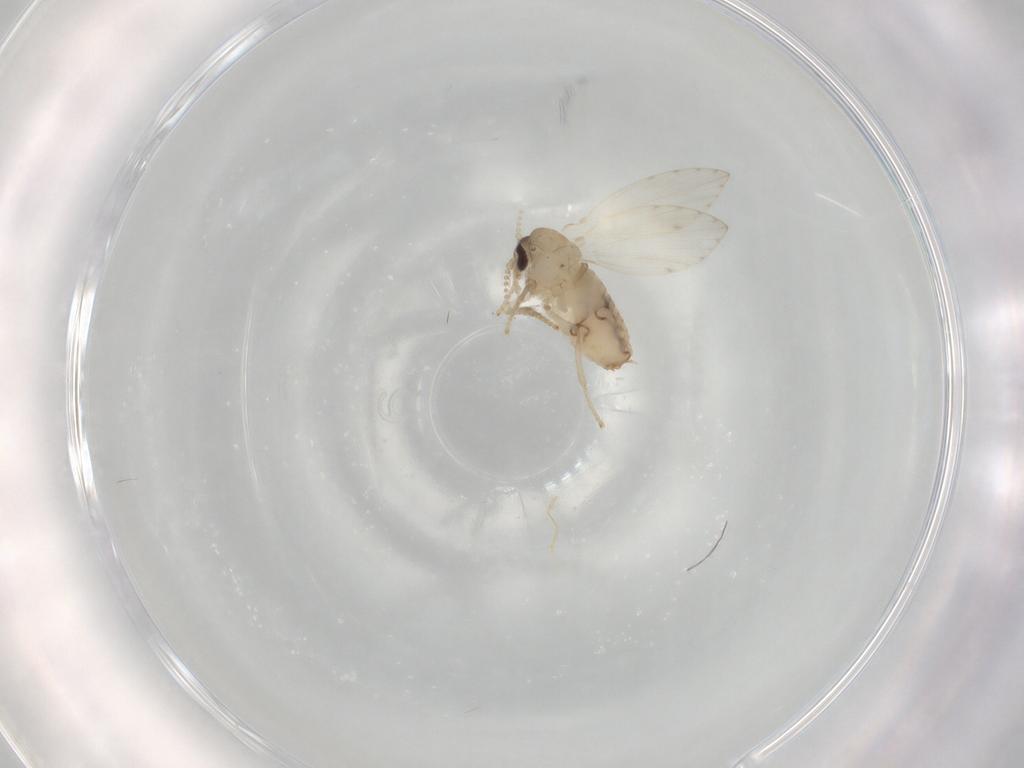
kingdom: Animalia
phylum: Arthropoda
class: Insecta
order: Diptera
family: Psychodidae
